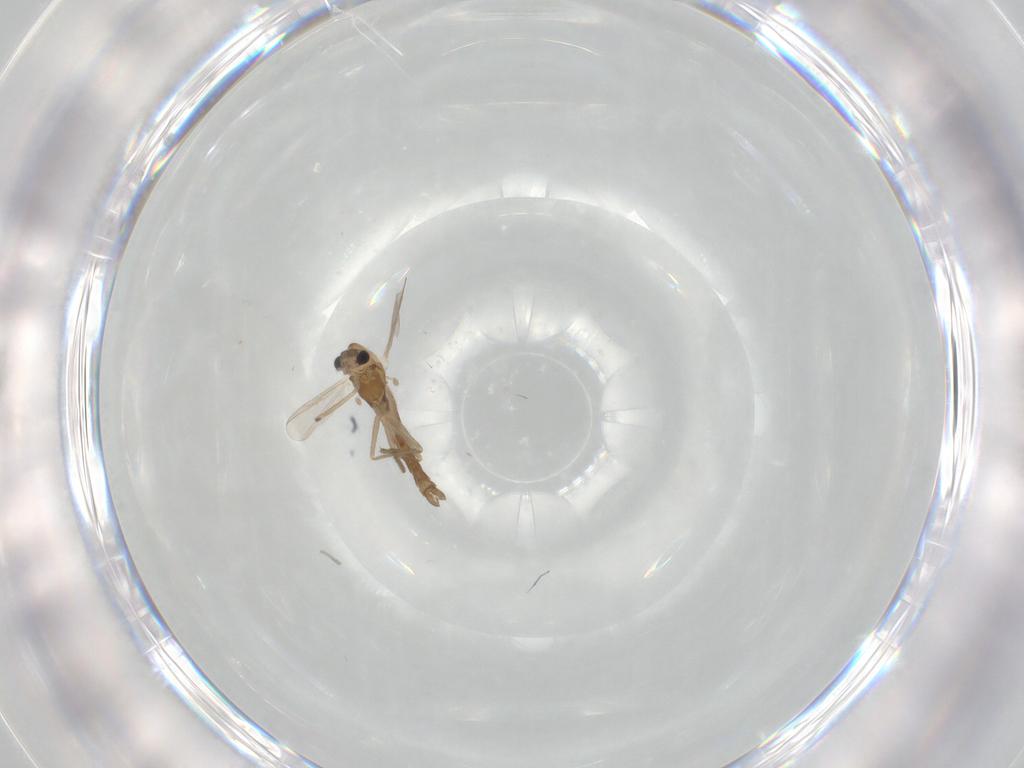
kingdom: Animalia
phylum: Arthropoda
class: Insecta
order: Diptera
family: Chironomidae
